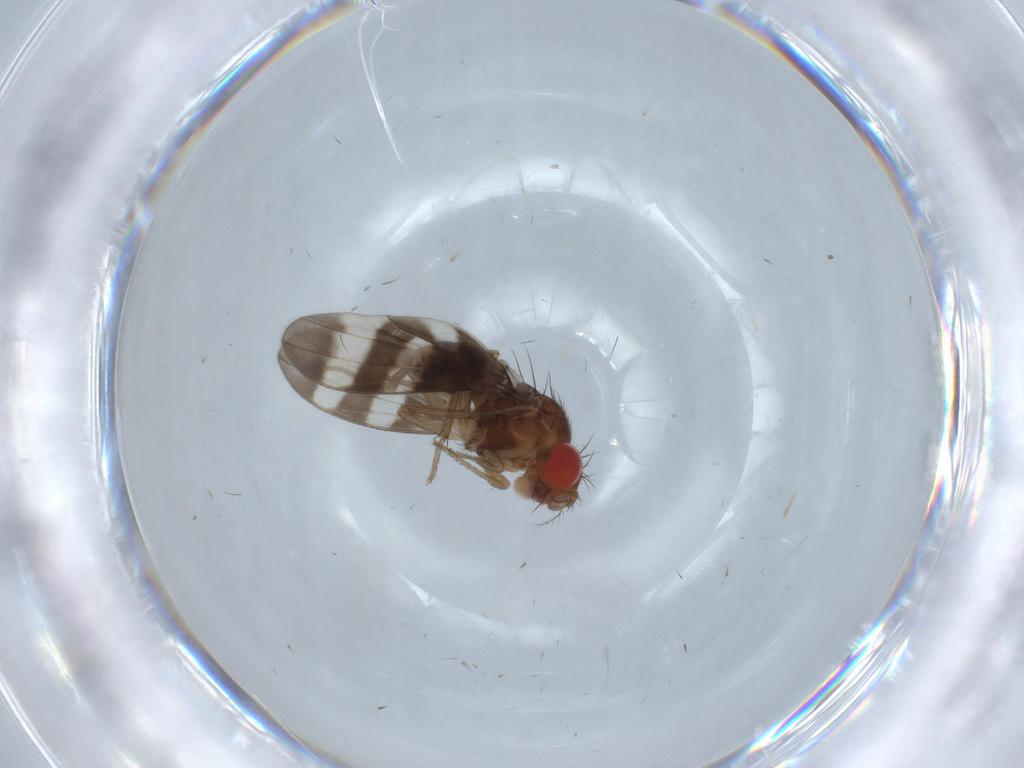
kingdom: Animalia
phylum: Arthropoda
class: Insecta
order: Diptera
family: Drosophilidae
